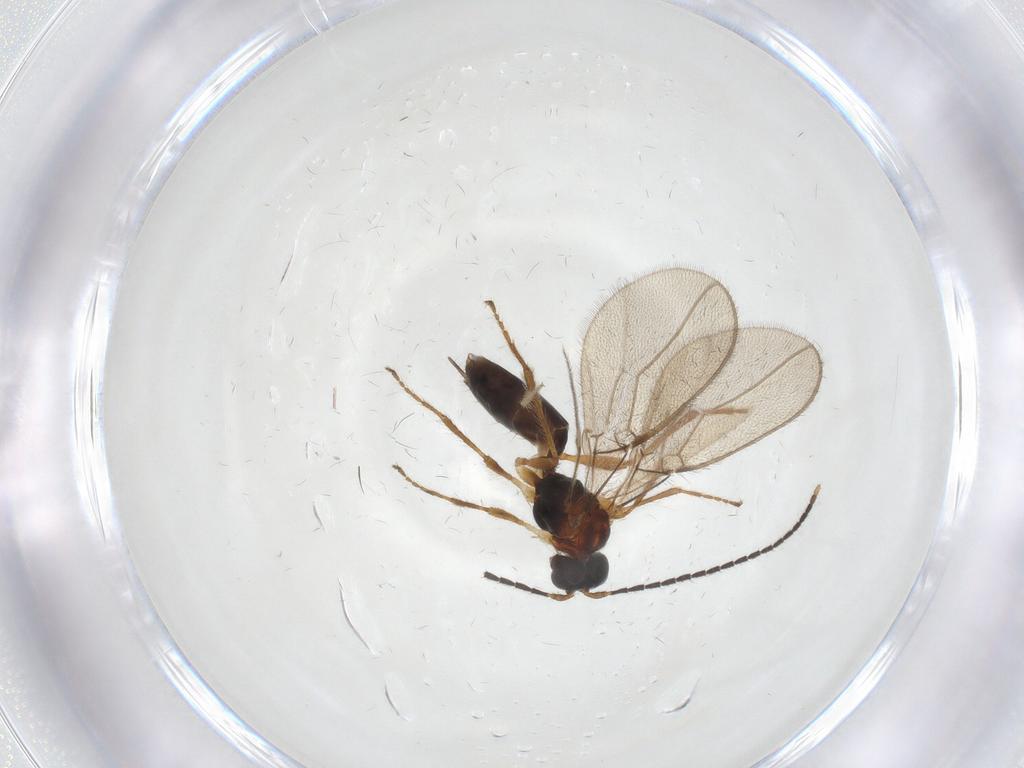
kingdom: Animalia
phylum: Arthropoda
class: Insecta
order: Hymenoptera
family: Braconidae
